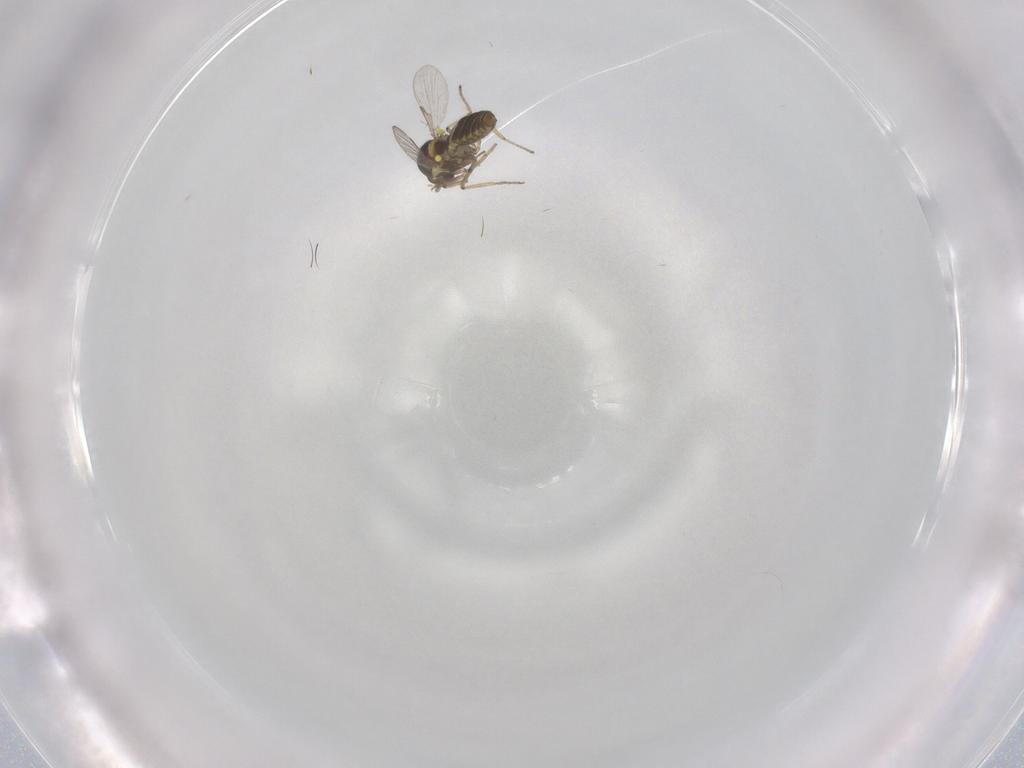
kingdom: Animalia
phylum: Arthropoda
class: Insecta
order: Diptera
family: Ceratopogonidae
